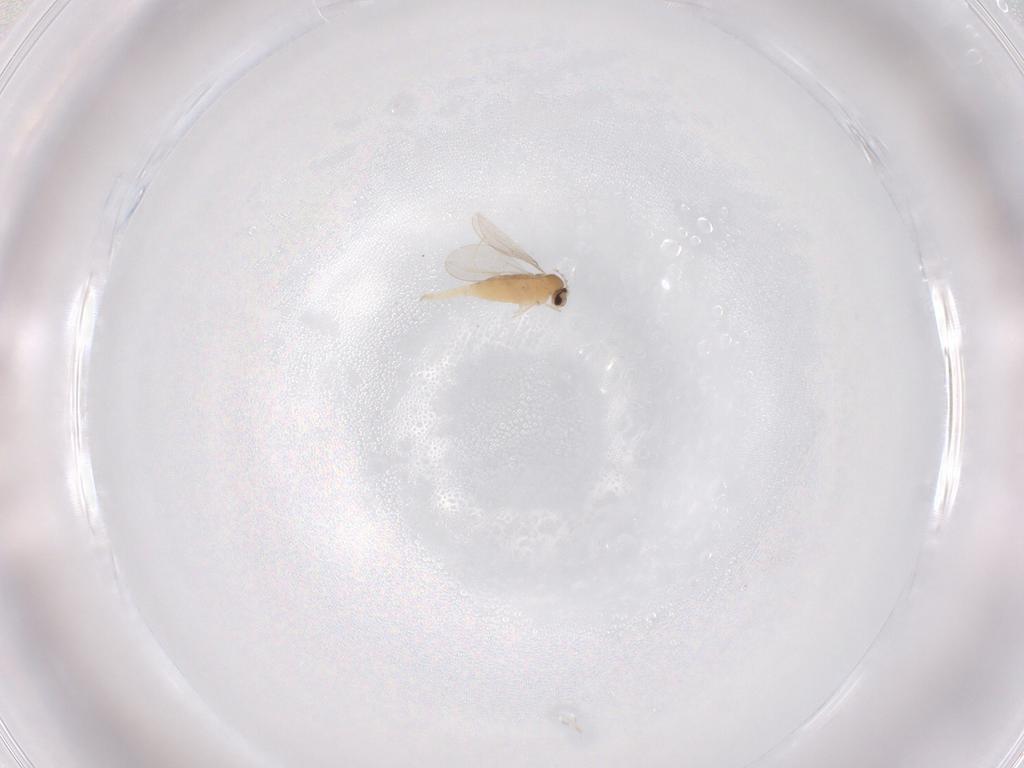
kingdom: Animalia
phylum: Arthropoda
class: Insecta
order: Diptera
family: Cecidomyiidae
